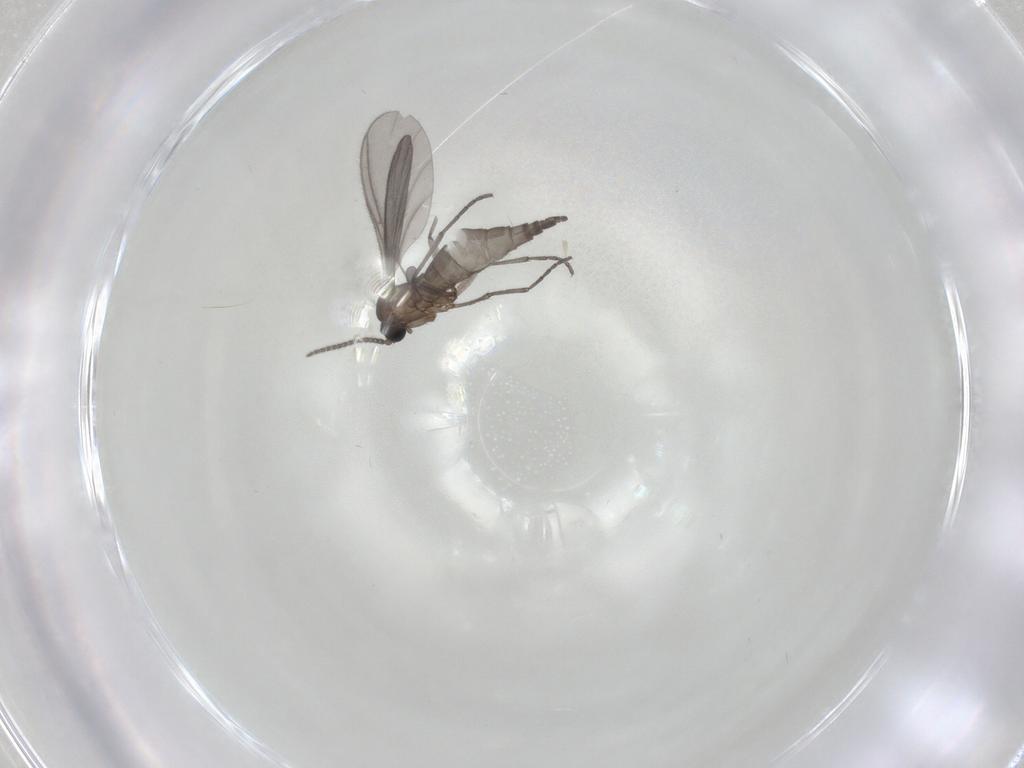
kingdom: Animalia
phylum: Arthropoda
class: Insecta
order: Diptera
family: Sciaridae
